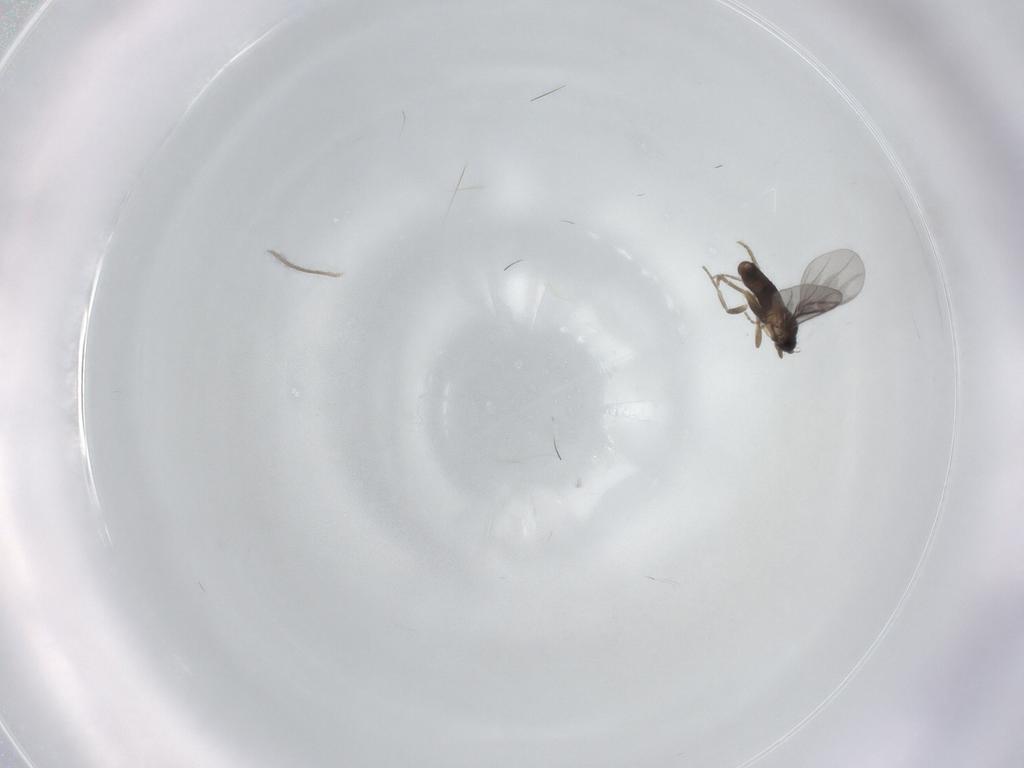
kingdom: Animalia
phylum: Arthropoda
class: Insecta
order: Diptera
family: Chironomidae
